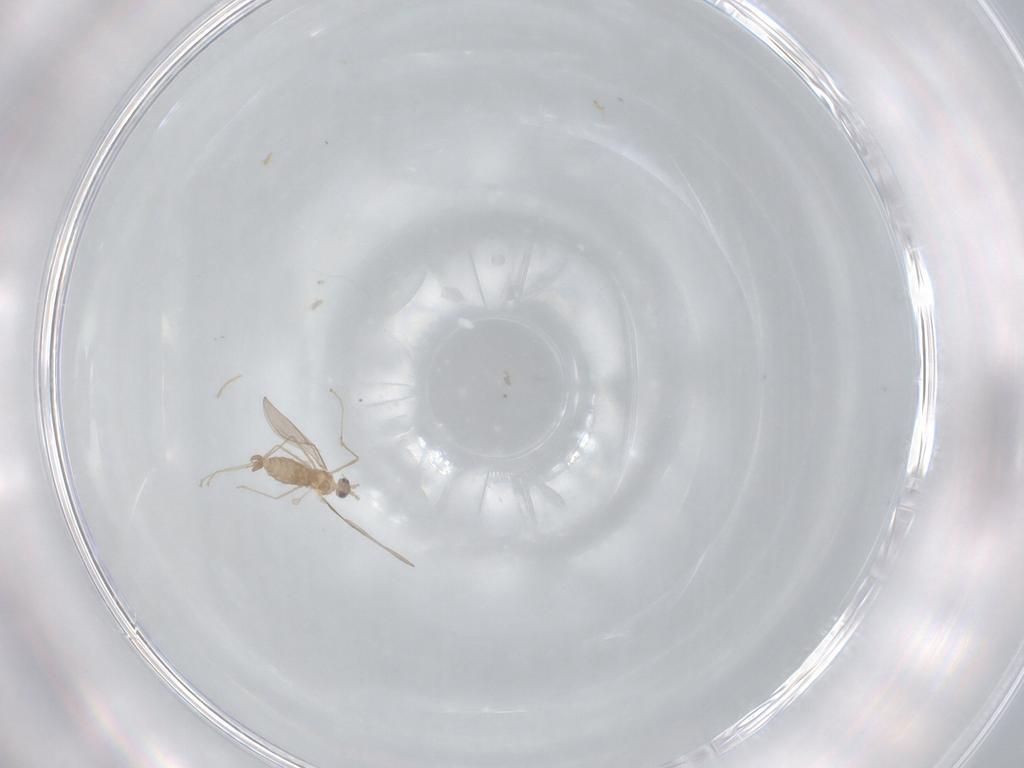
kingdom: Animalia
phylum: Arthropoda
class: Insecta
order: Diptera
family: Cecidomyiidae
